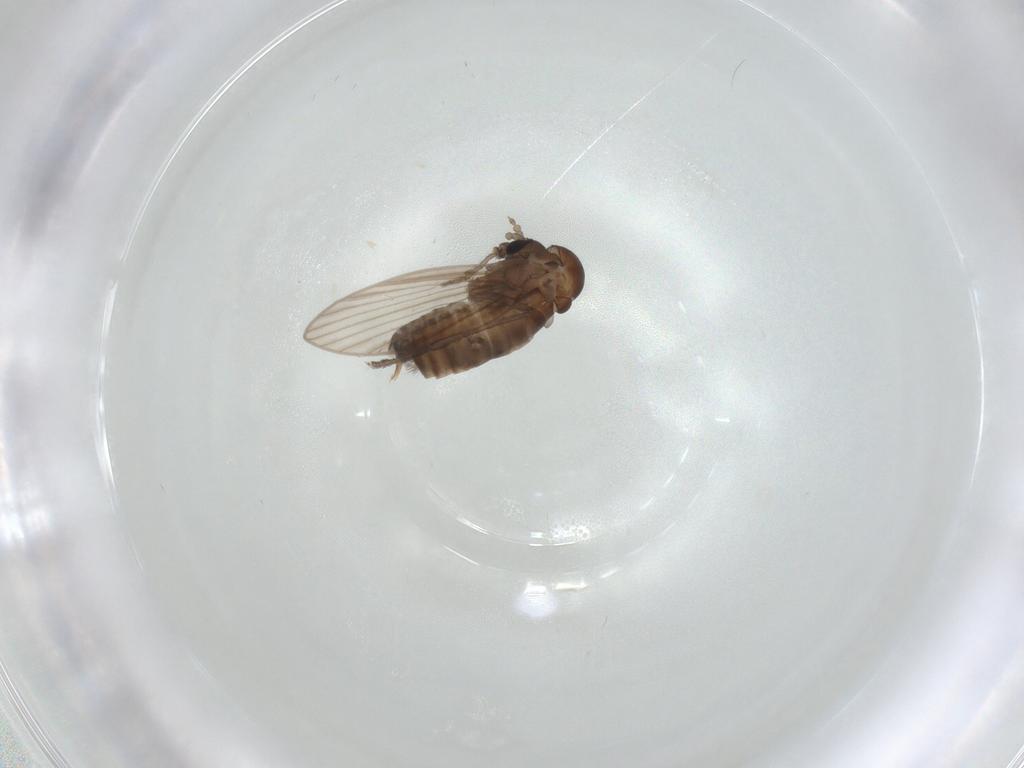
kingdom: Animalia
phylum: Arthropoda
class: Insecta
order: Diptera
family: Psychodidae
